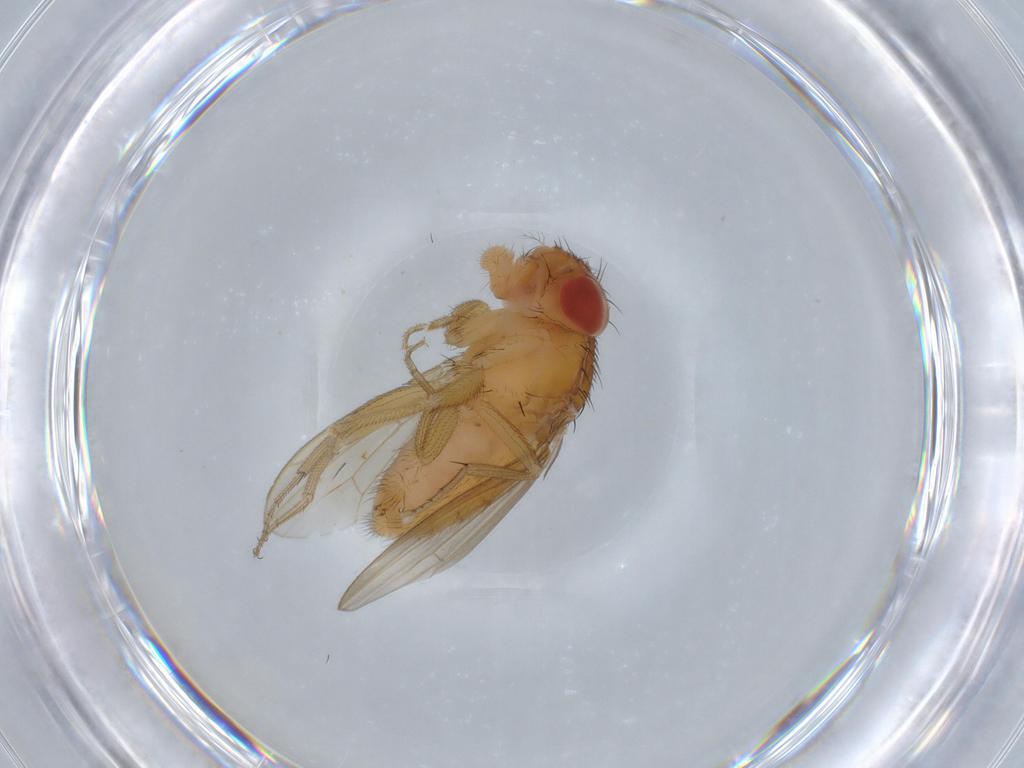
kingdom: Animalia
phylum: Arthropoda
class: Insecta
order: Diptera
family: Drosophilidae
